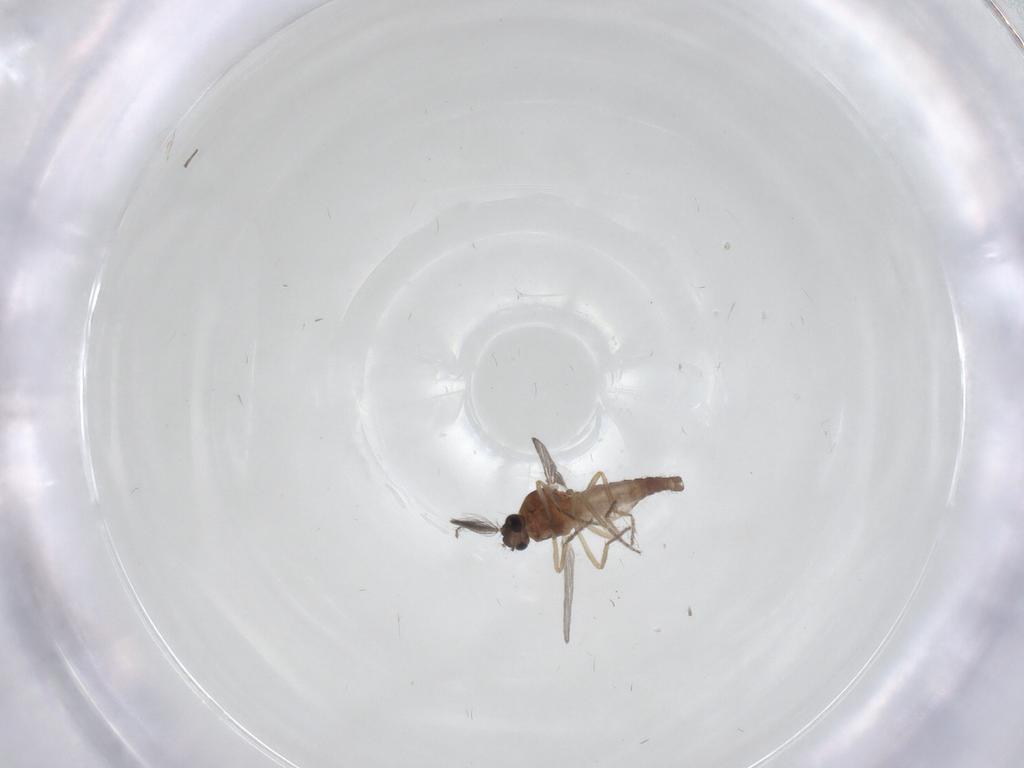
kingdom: Animalia
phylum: Arthropoda
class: Insecta
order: Diptera
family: Ceratopogonidae
